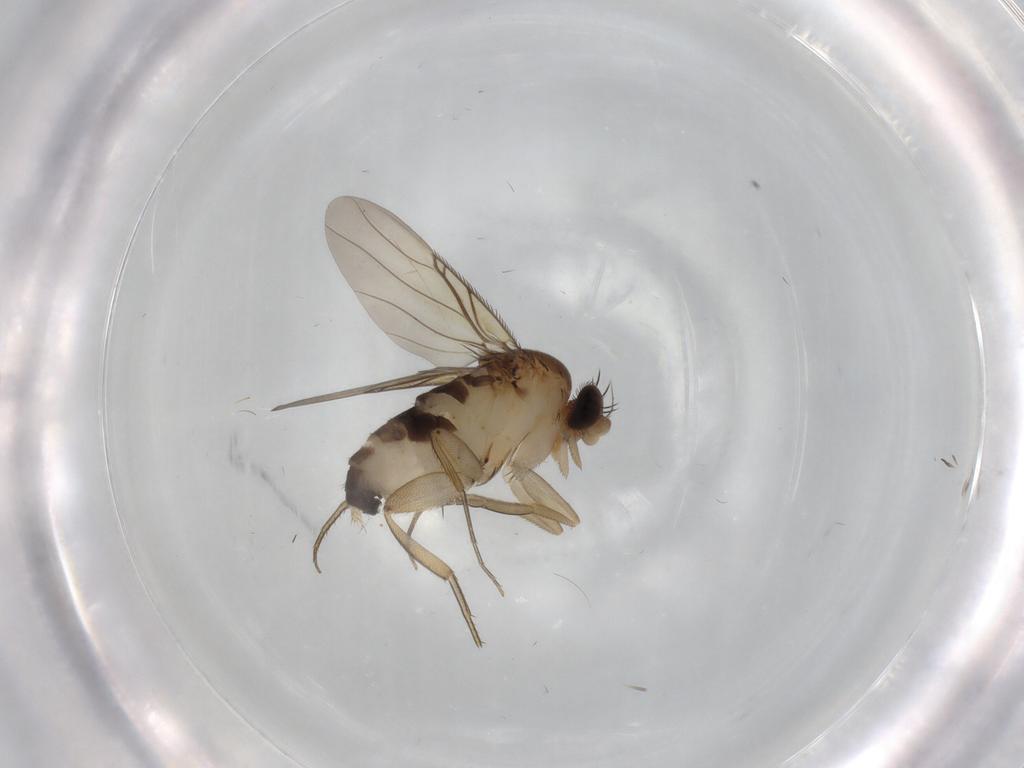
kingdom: Animalia
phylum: Arthropoda
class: Insecta
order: Diptera
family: Phoridae
